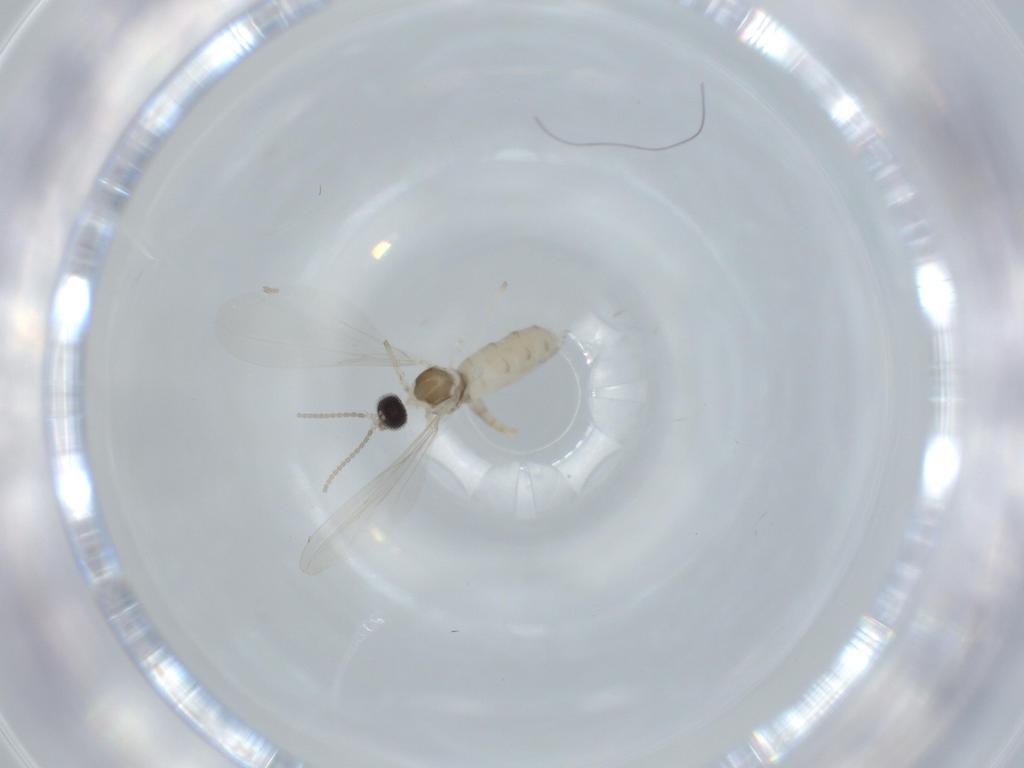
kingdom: Animalia
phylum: Arthropoda
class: Insecta
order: Diptera
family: Cecidomyiidae
